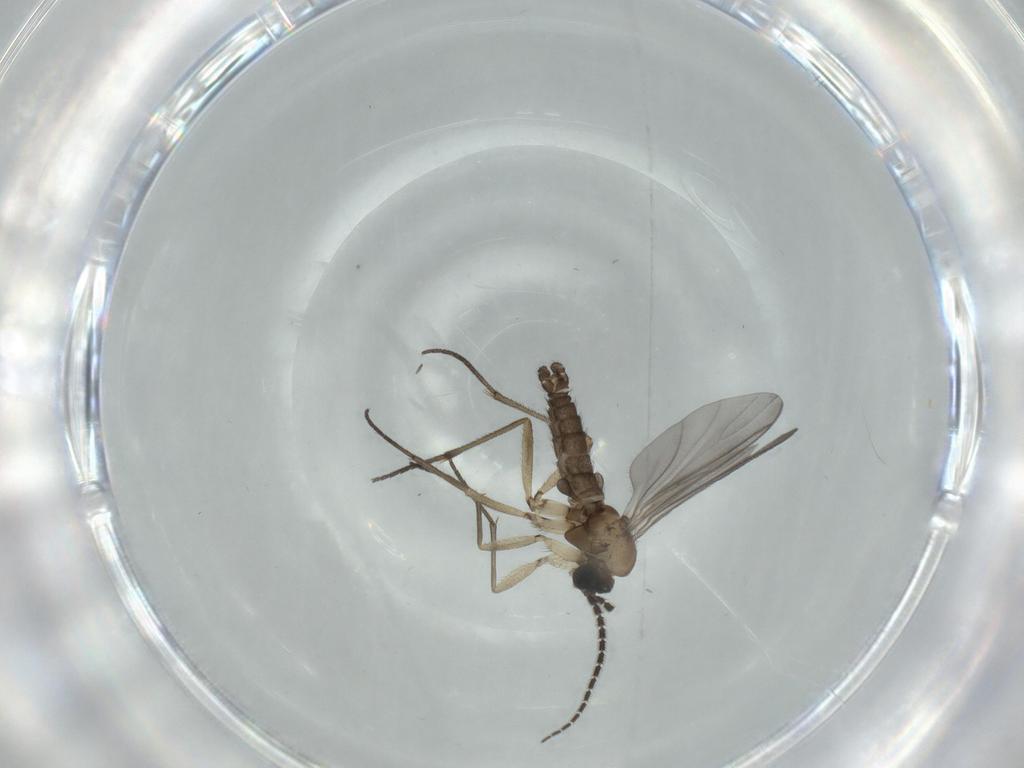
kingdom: Animalia
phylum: Arthropoda
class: Insecta
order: Diptera
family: Sciaridae
